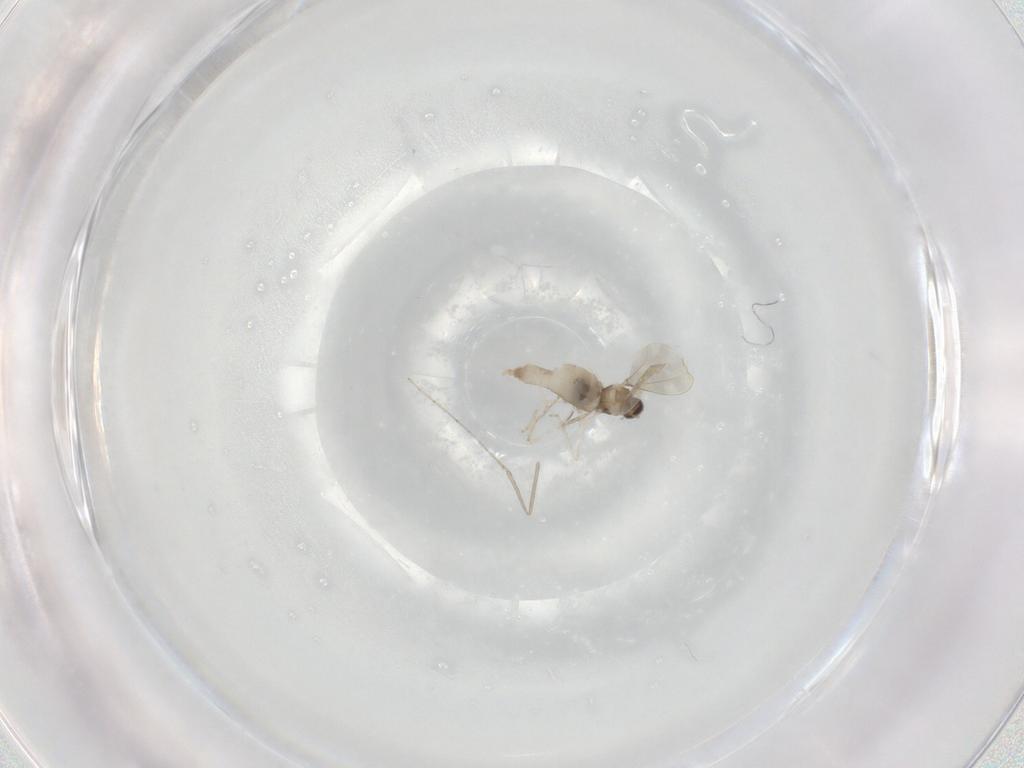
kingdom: Animalia
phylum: Arthropoda
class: Insecta
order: Diptera
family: Cecidomyiidae
